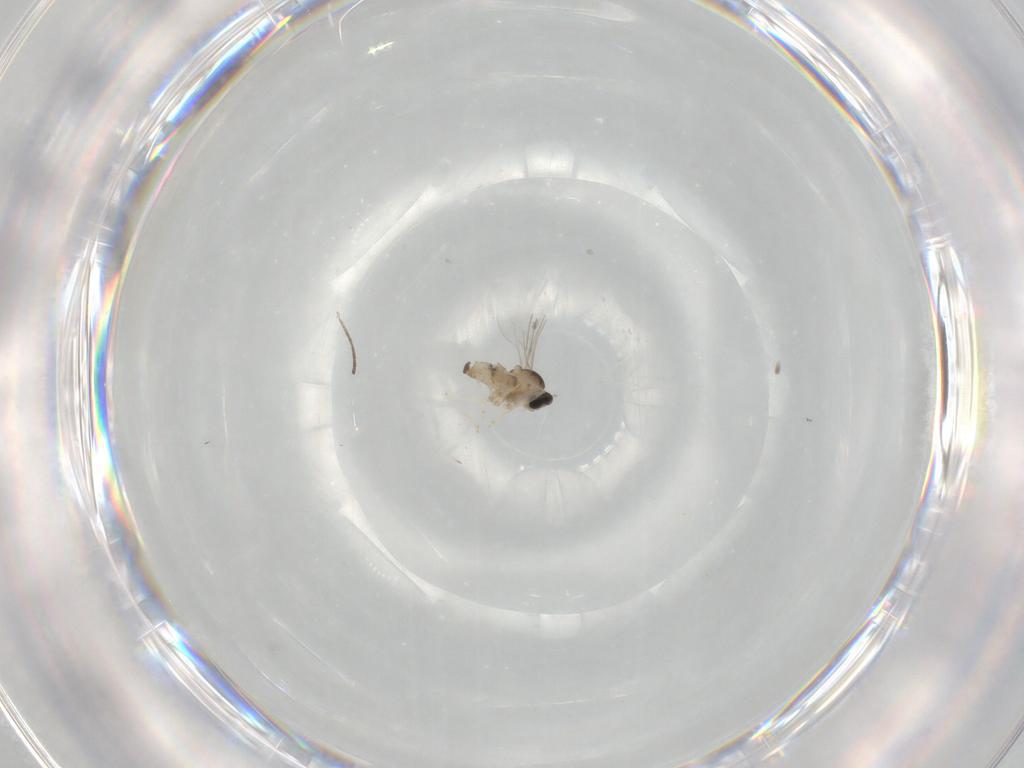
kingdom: Animalia
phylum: Arthropoda
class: Insecta
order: Diptera
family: Cecidomyiidae
